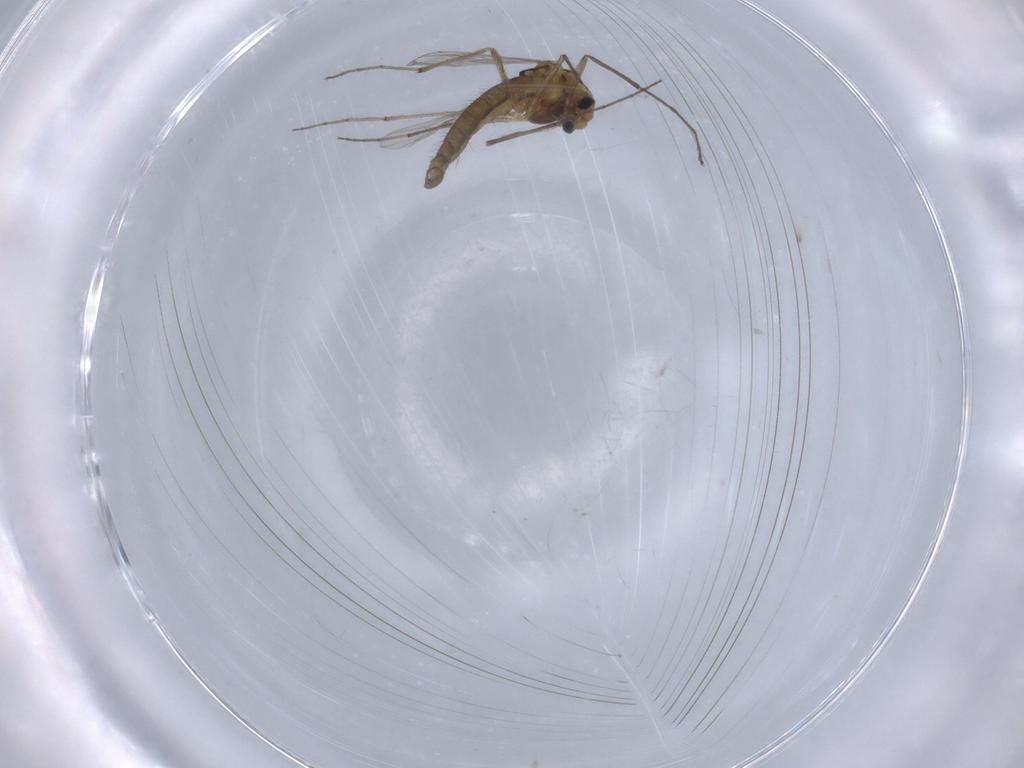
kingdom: Animalia
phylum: Arthropoda
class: Insecta
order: Diptera
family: Chironomidae
